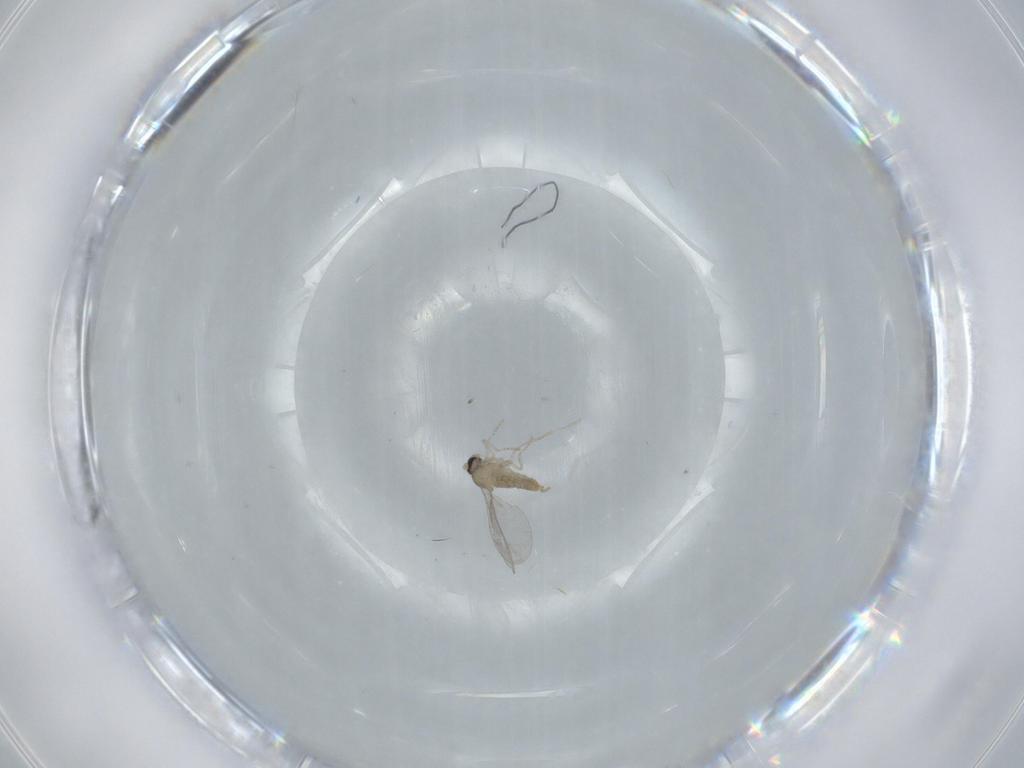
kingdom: Animalia
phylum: Arthropoda
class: Insecta
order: Diptera
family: Cecidomyiidae
